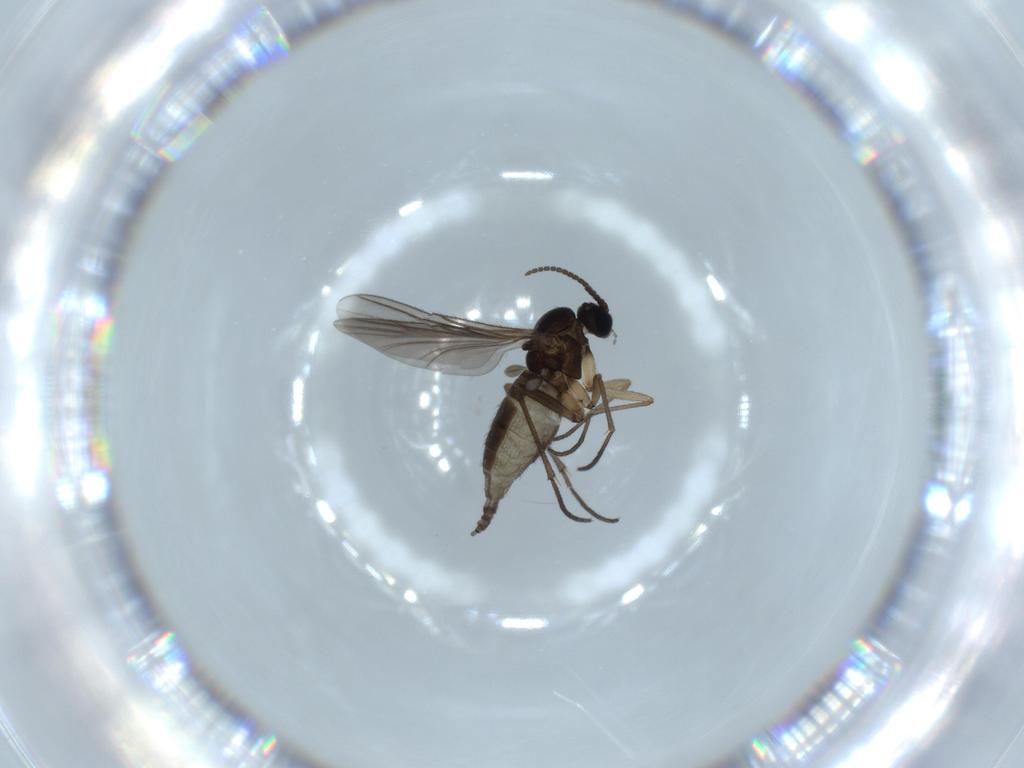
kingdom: Animalia
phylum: Arthropoda
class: Insecta
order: Diptera
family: Sciaridae
